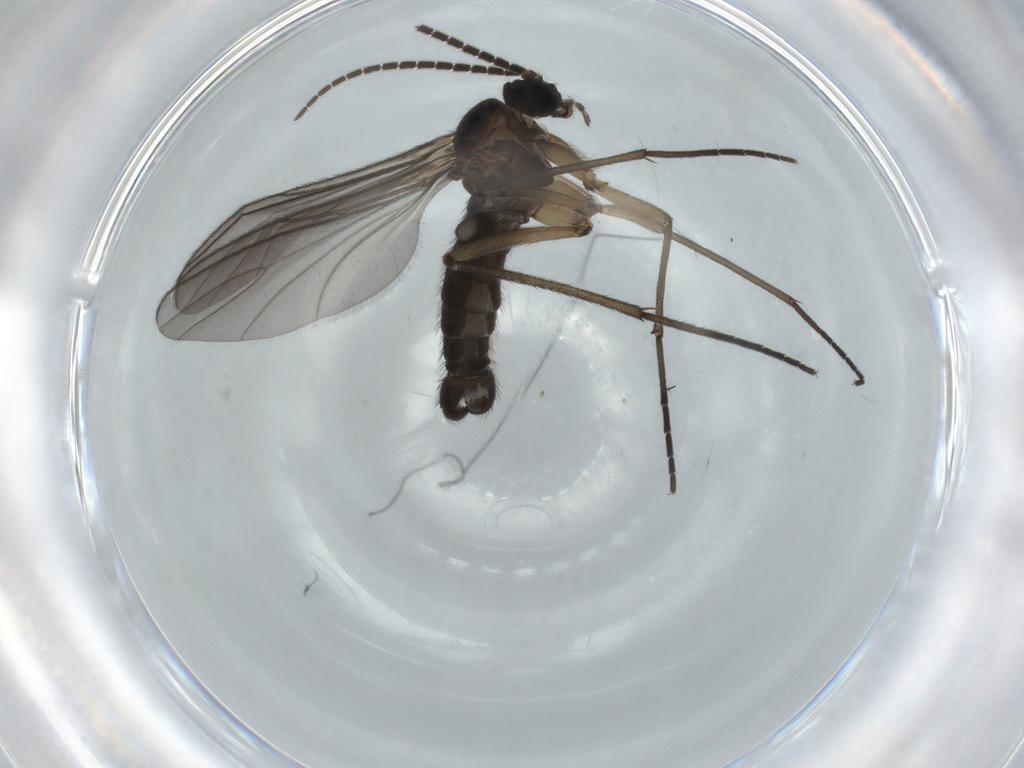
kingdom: Animalia
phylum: Arthropoda
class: Insecta
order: Diptera
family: Sciaridae
